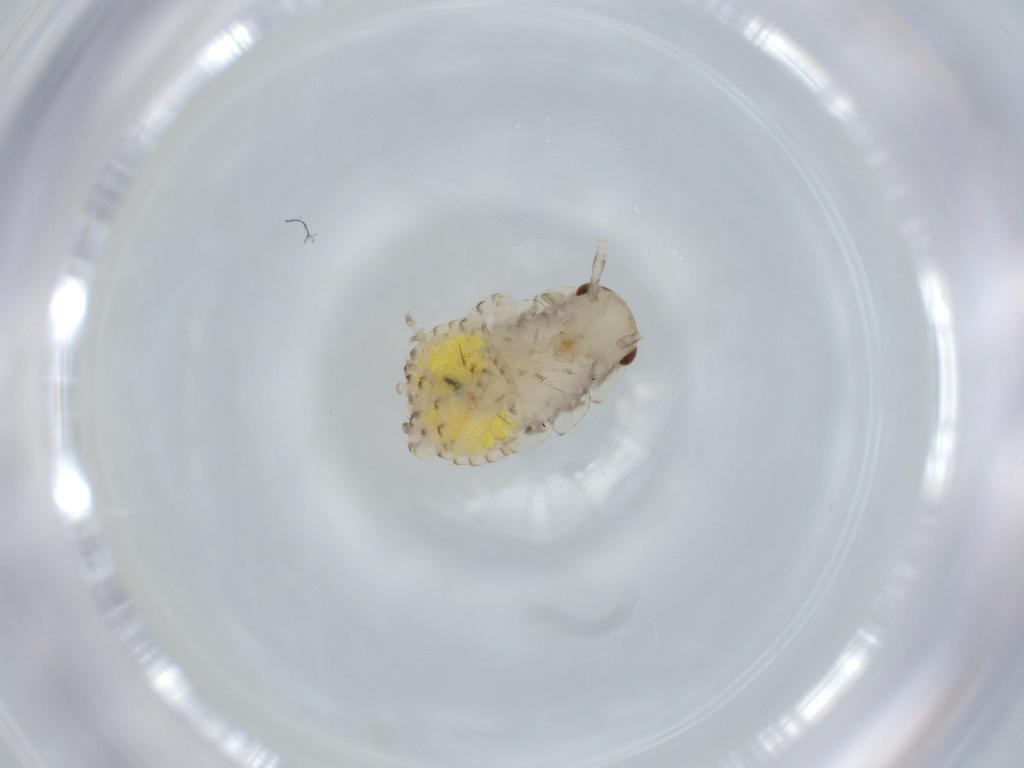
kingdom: Animalia
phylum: Arthropoda
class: Insecta
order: Blattodea
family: Ectobiidae
